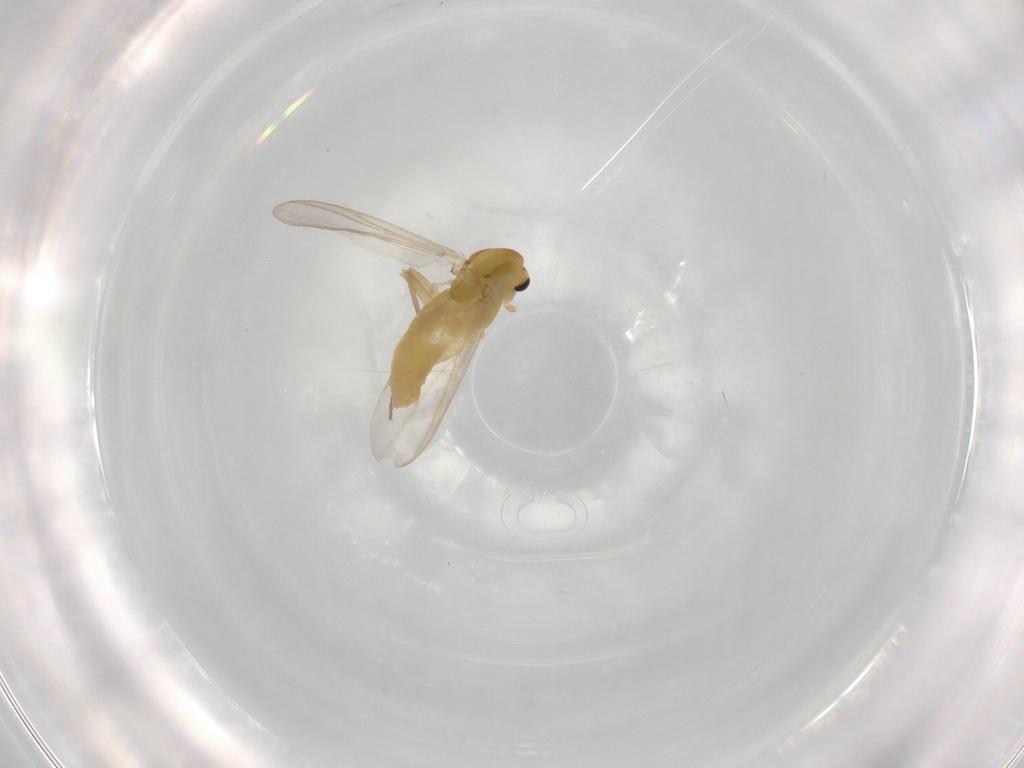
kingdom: Animalia
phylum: Arthropoda
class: Insecta
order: Diptera
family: Chironomidae
